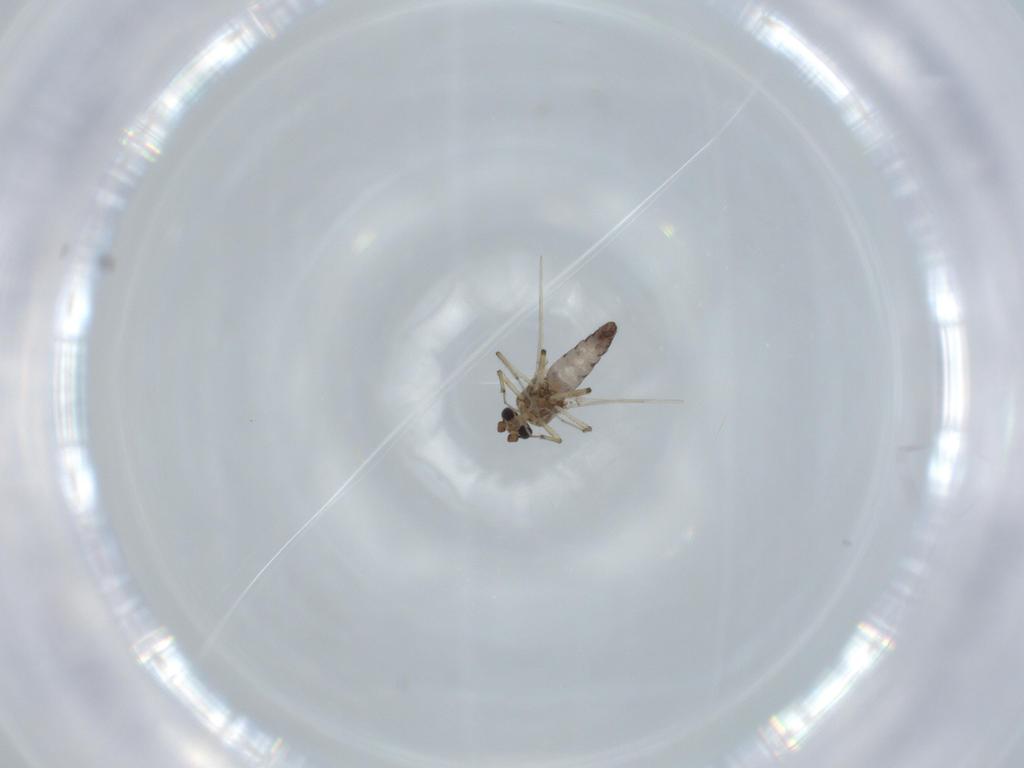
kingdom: Animalia
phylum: Arthropoda
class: Insecta
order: Diptera
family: Ceratopogonidae
